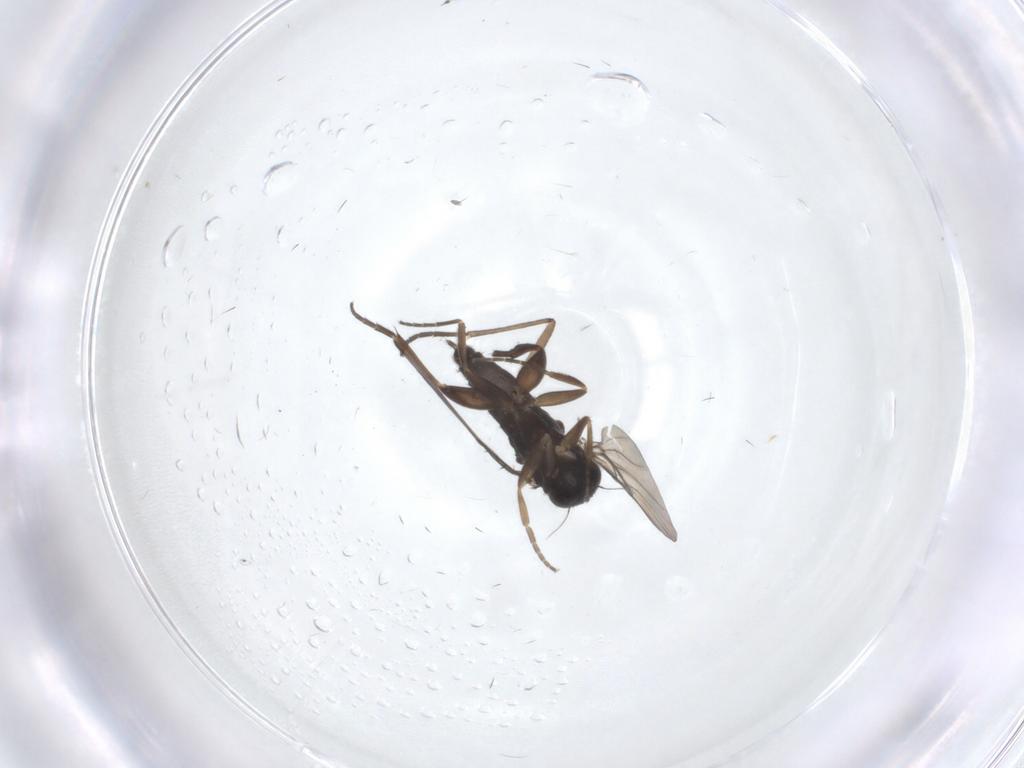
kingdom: Animalia
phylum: Arthropoda
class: Insecta
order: Diptera
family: Phoridae
